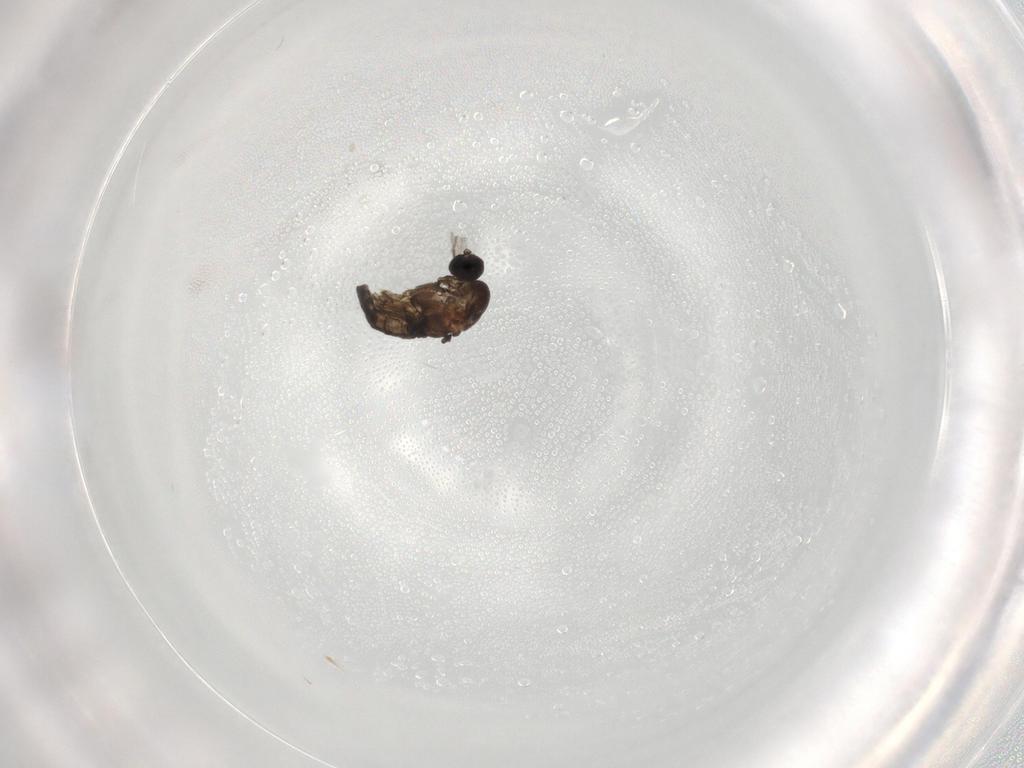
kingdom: Animalia
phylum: Arthropoda
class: Insecta
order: Diptera
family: Sciaridae
